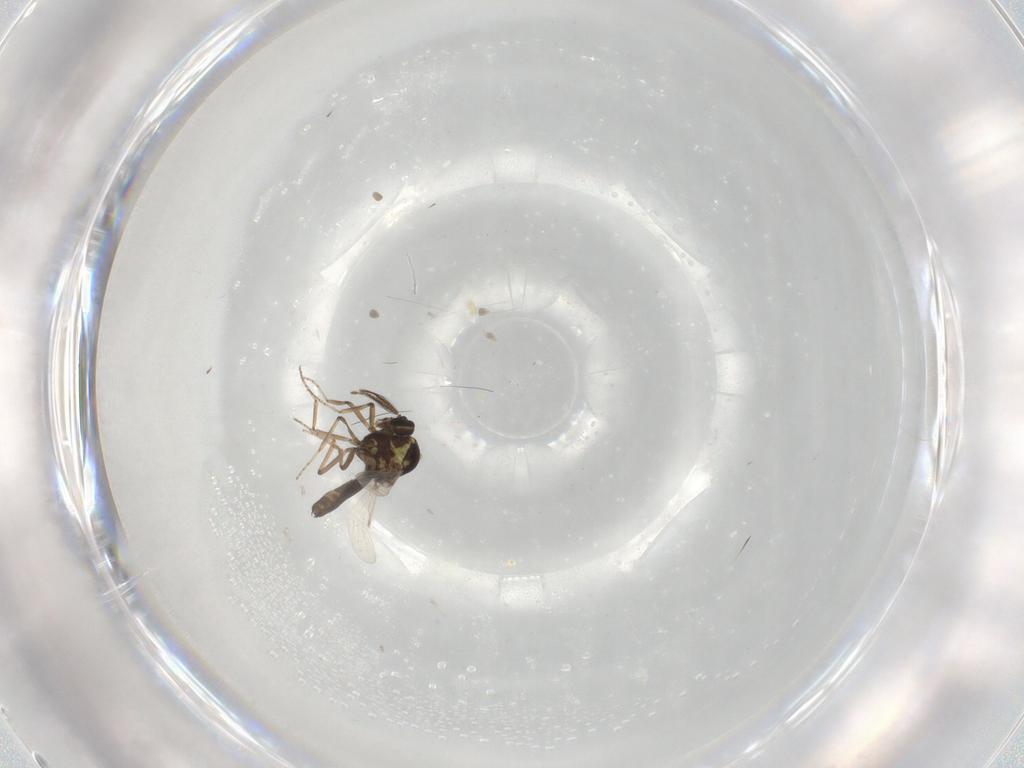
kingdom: Animalia
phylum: Arthropoda
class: Insecta
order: Diptera
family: Ceratopogonidae
